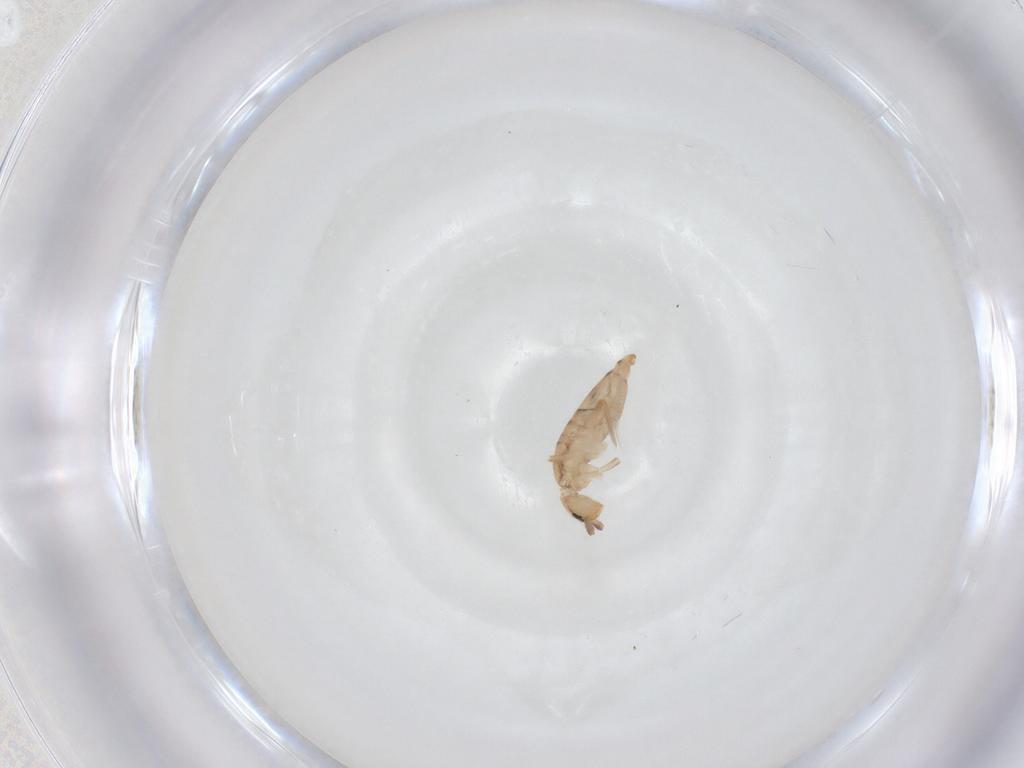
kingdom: Animalia
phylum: Arthropoda
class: Collembola
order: Entomobryomorpha
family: Entomobryidae
